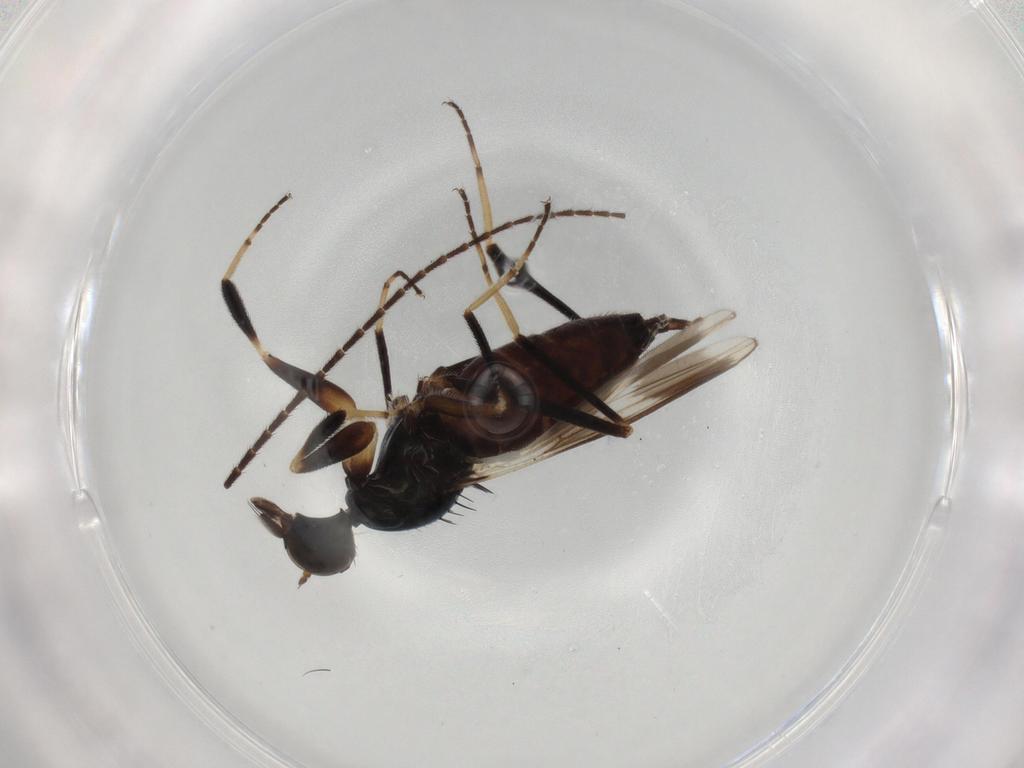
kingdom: Animalia
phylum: Arthropoda
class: Insecta
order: Diptera
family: Hybotidae
